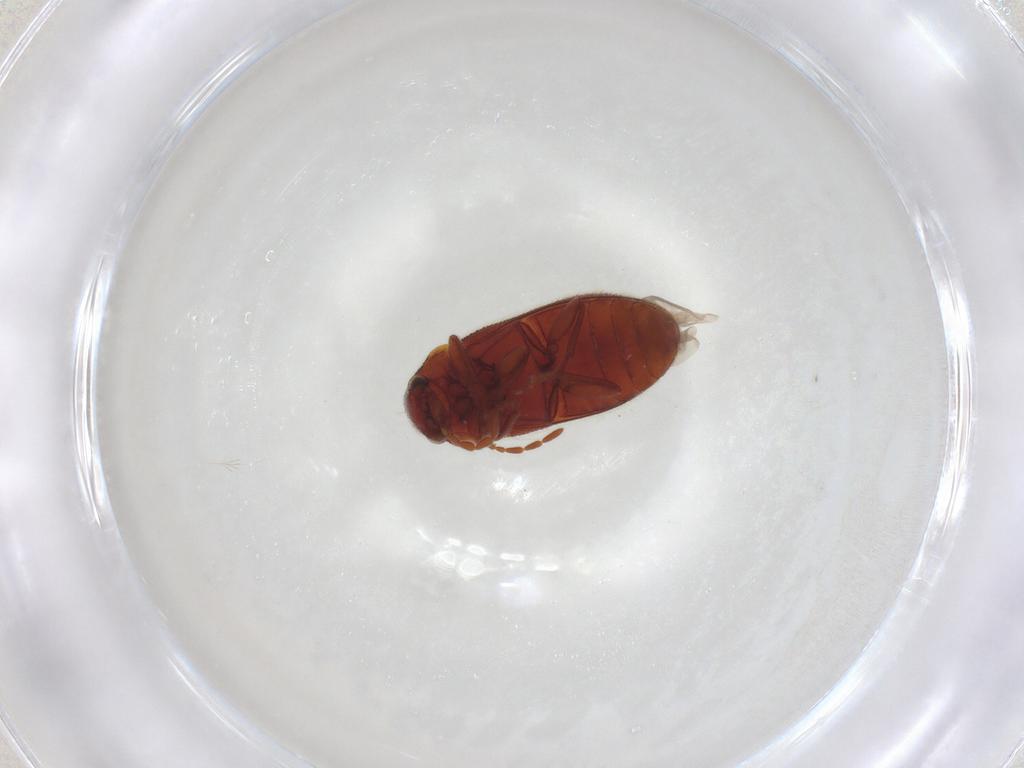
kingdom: Animalia
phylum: Arthropoda
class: Insecta
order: Coleoptera
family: Ptinidae
